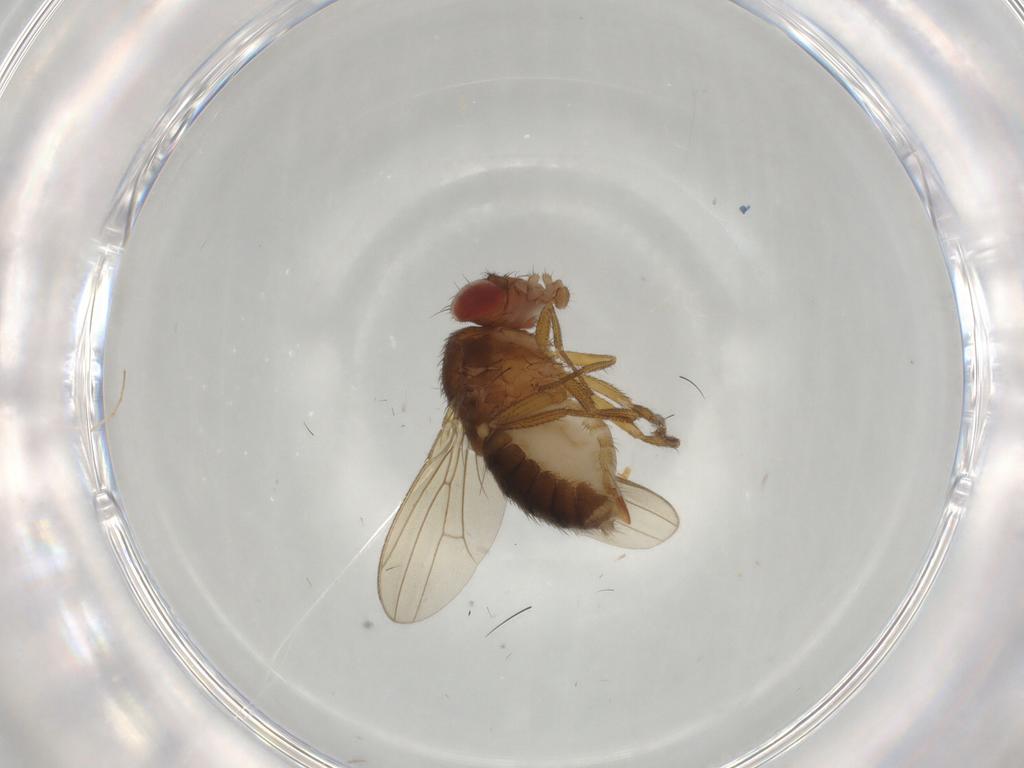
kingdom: Animalia
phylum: Arthropoda
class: Insecta
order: Diptera
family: Drosophilidae
